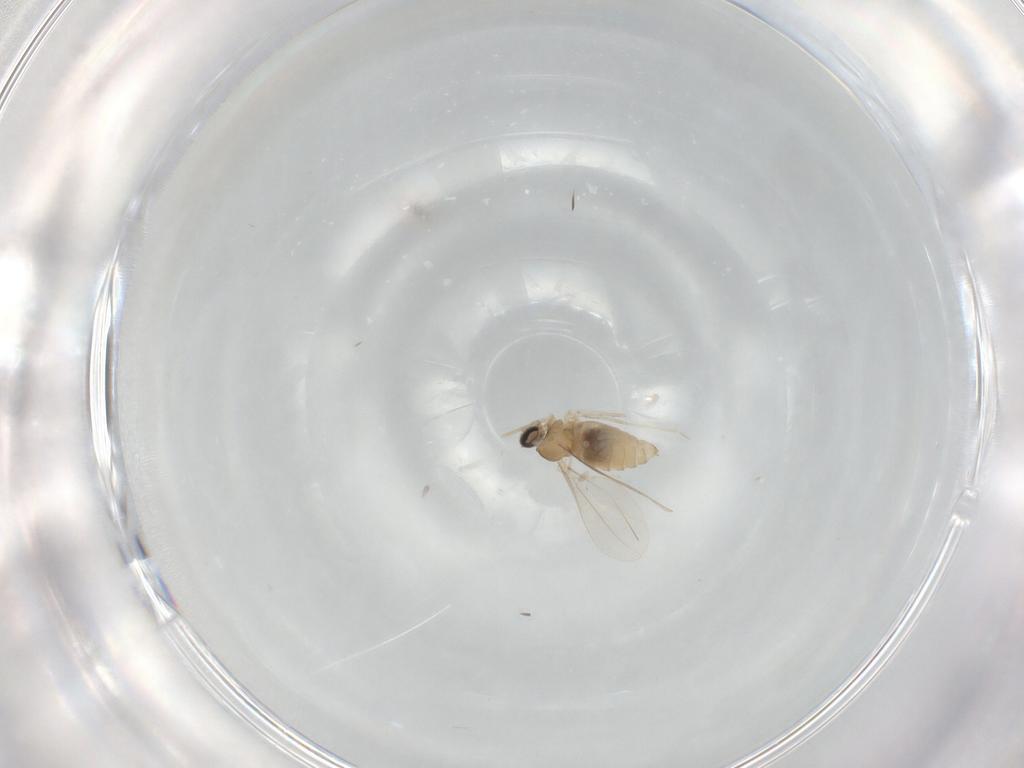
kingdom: Animalia
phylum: Arthropoda
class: Insecta
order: Diptera
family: Cecidomyiidae
